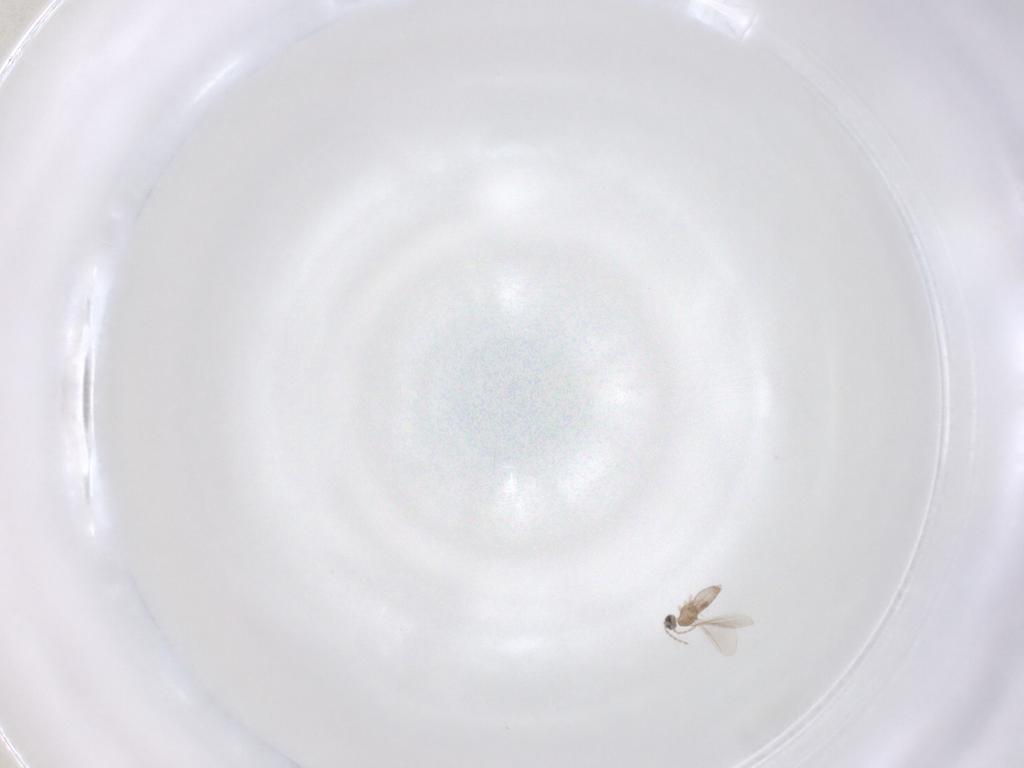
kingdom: Animalia
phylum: Arthropoda
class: Insecta
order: Diptera
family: Cecidomyiidae
